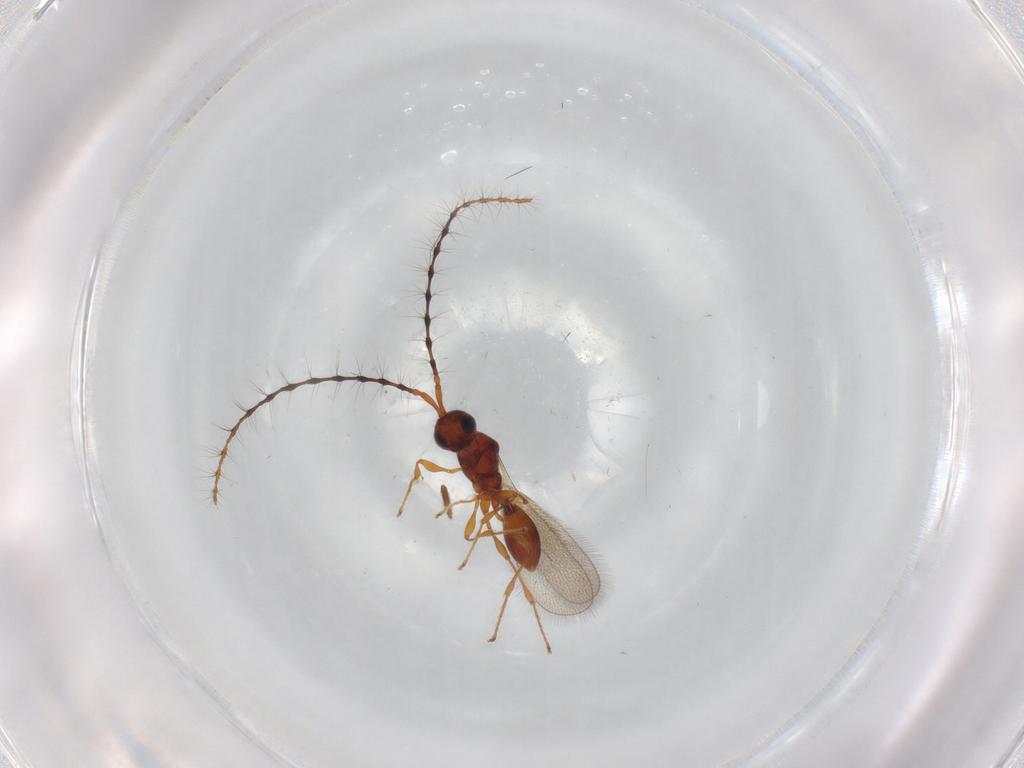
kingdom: Animalia
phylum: Arthropoda
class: Insecta
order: Hymenoptera
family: Diapriidae
